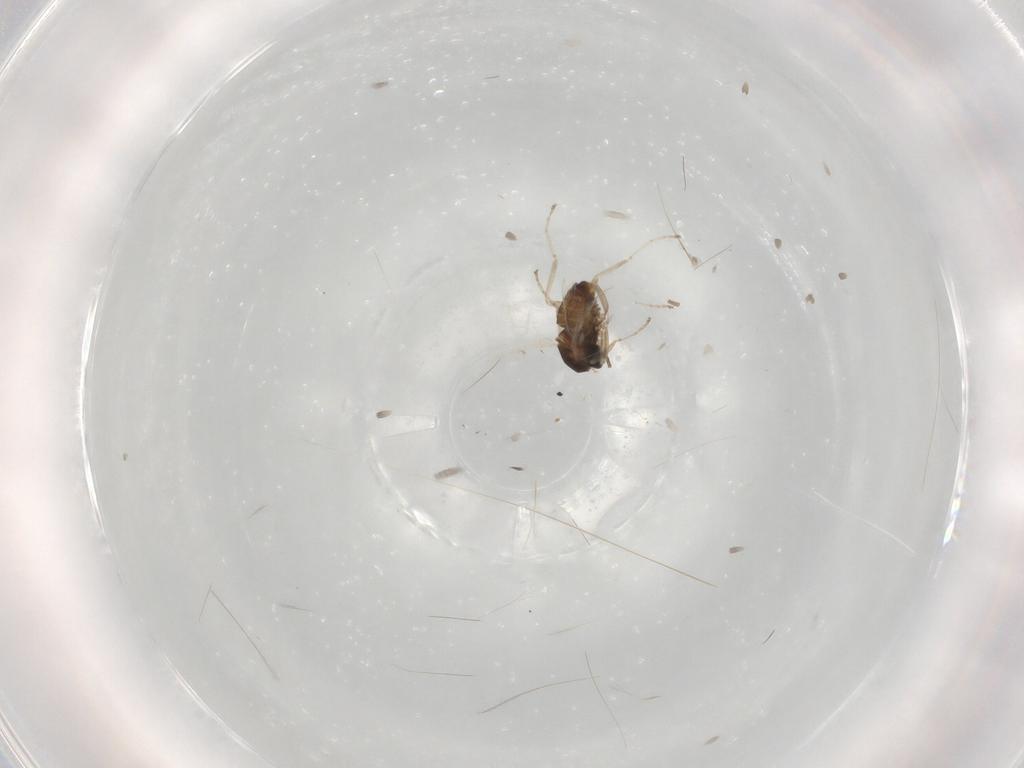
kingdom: Animalia
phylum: Arthropoda
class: Insecta
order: Diptera
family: Cecidomyiidae
